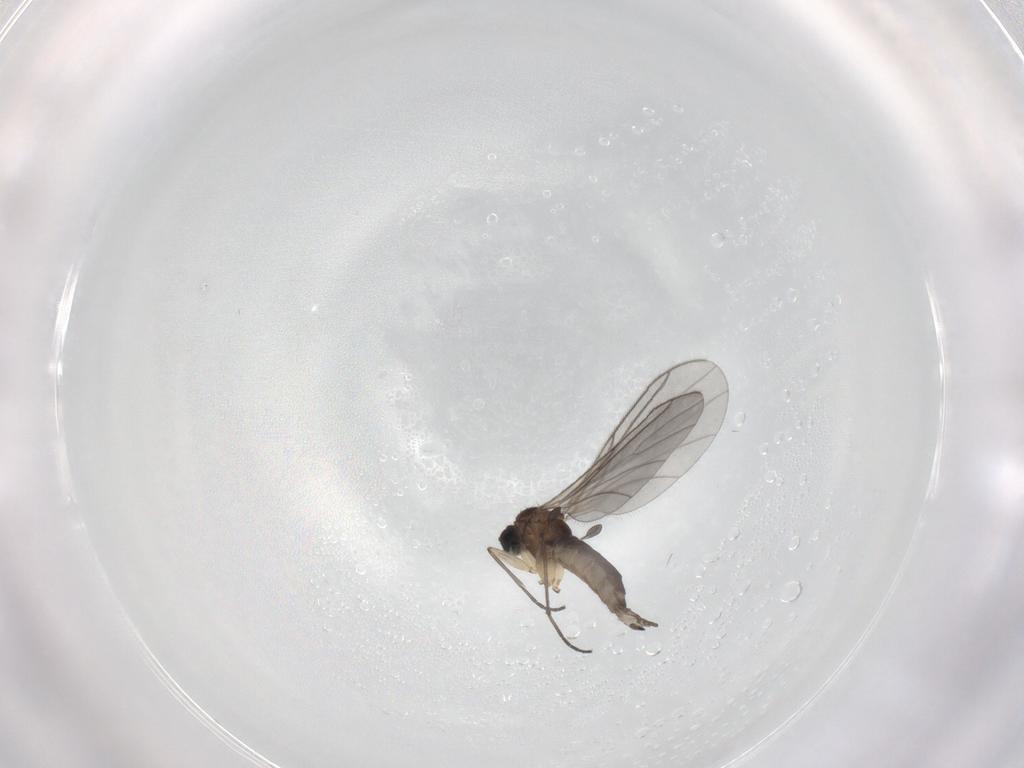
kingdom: Animalia
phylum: Arthropoda
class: Insecta
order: Diptera
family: Sciaridae
